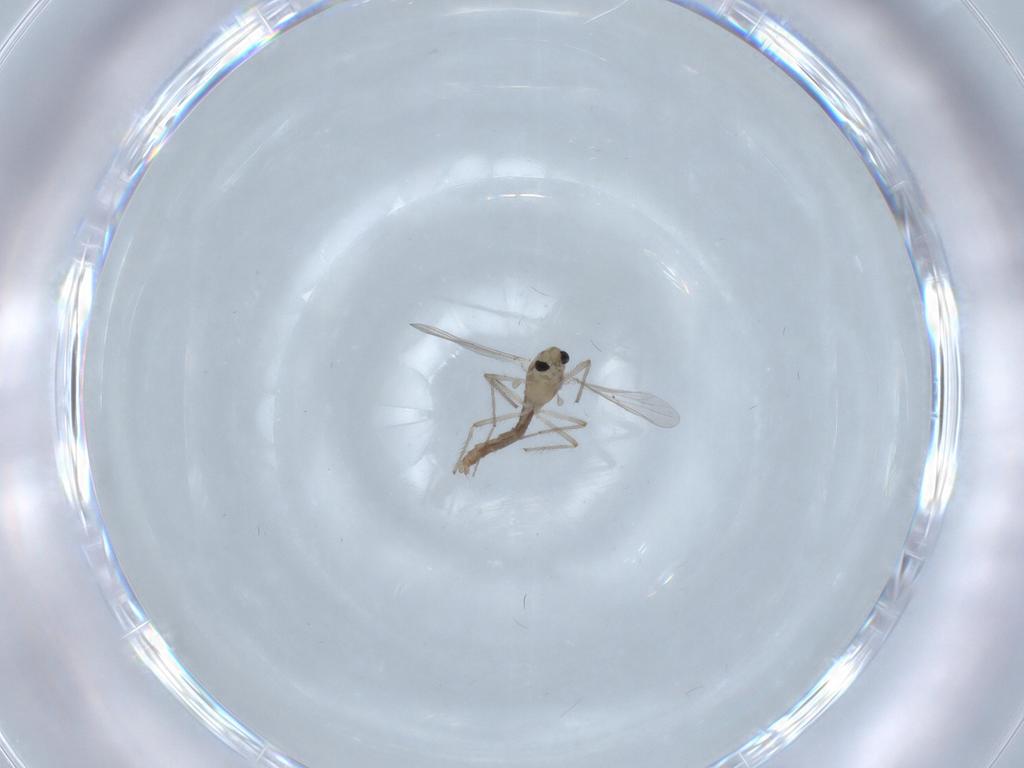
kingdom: Animalia
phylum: Arthropoda
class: Insecta
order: Diptera
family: Chironomidae
